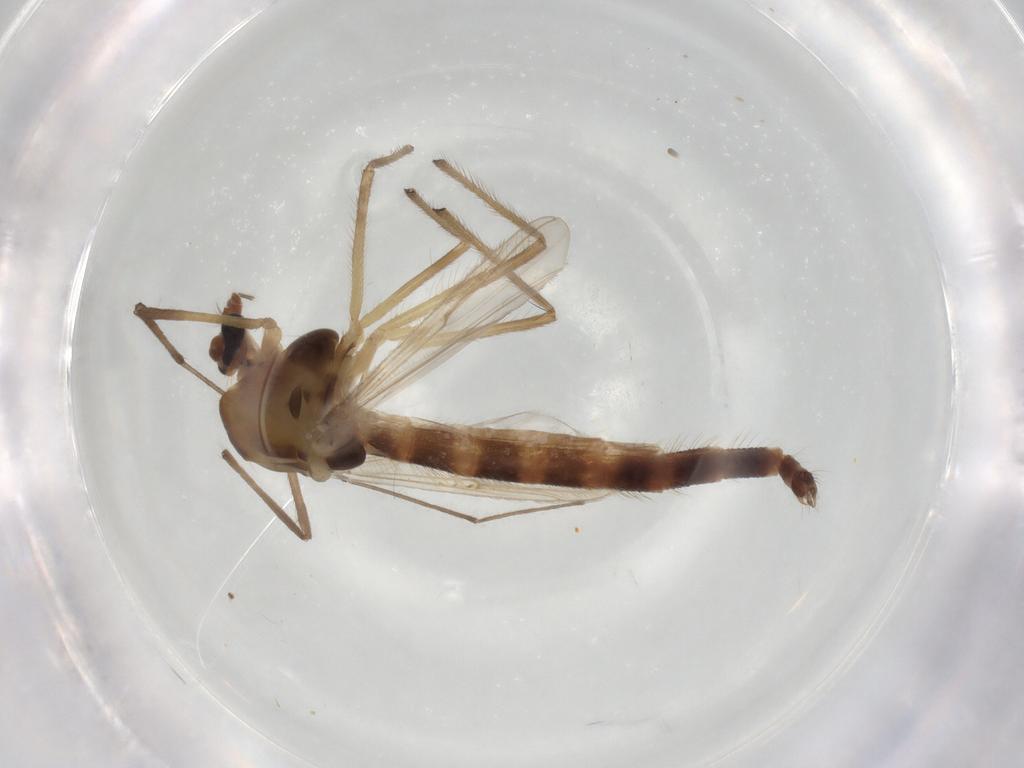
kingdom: Animalia
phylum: Arthropoda
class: Insecta
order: Diptera
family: Chironomidae
